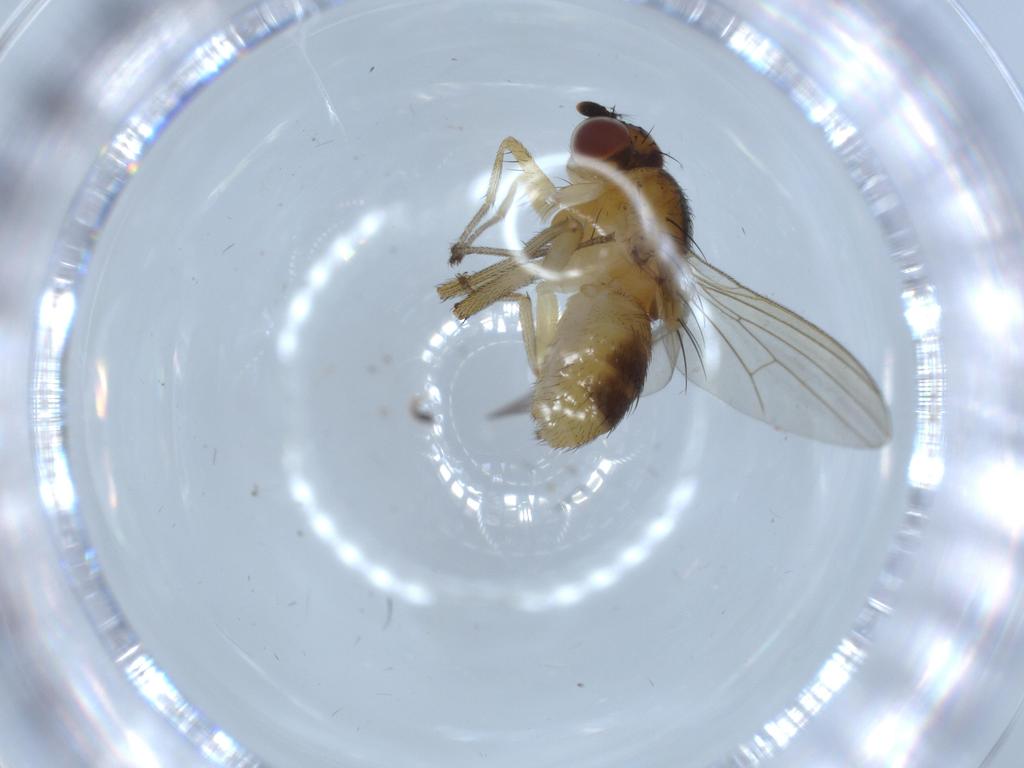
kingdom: Animalia
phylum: Arthropoda
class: Insecta
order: Diptera
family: Lauxaniidae
